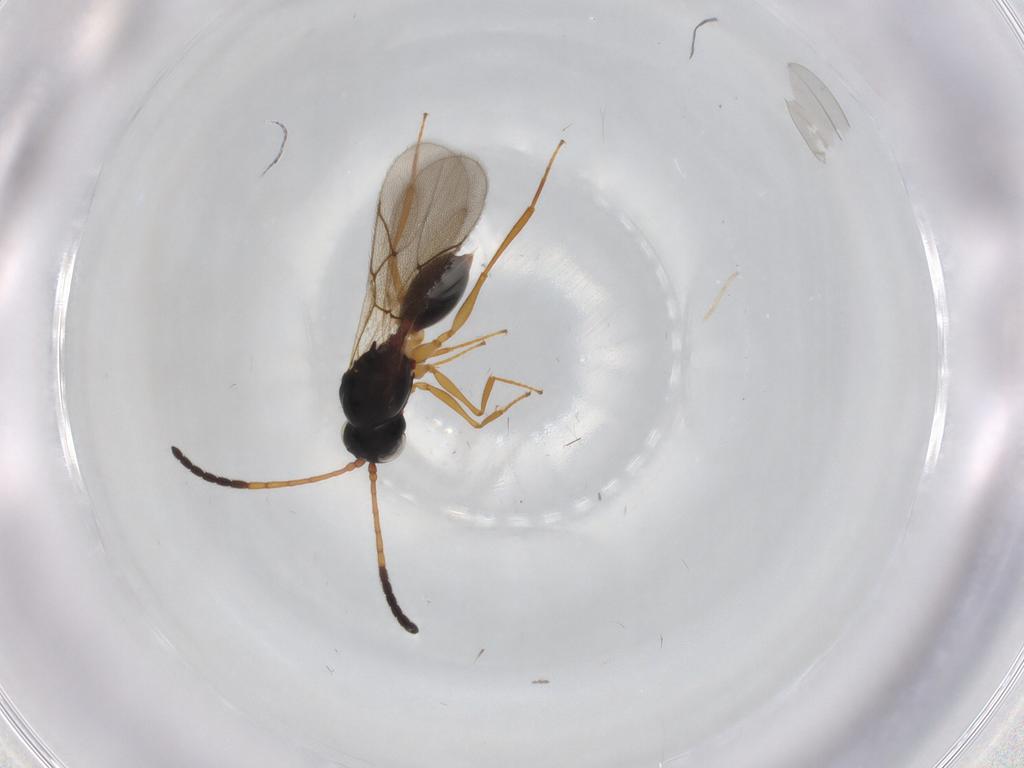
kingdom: Animalia
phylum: Arthropoda
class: Insecta
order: Hymenoptera
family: Figitidae
